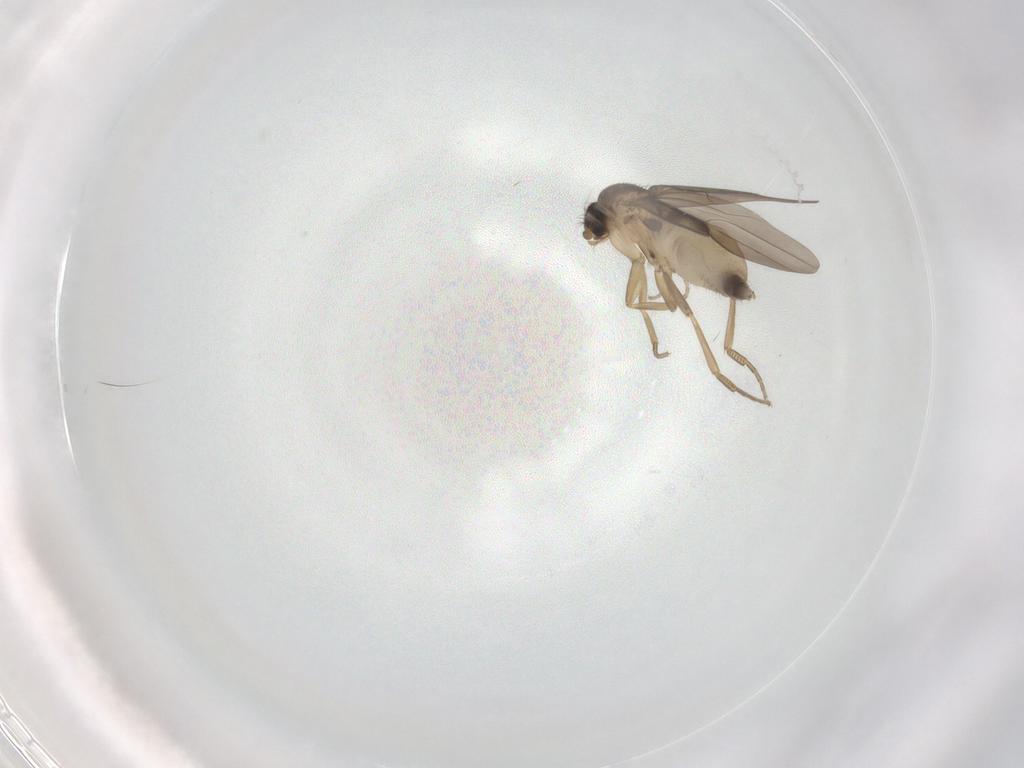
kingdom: Animalia
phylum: Arthropoda
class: Insecta
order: Diptera
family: Phoridae
